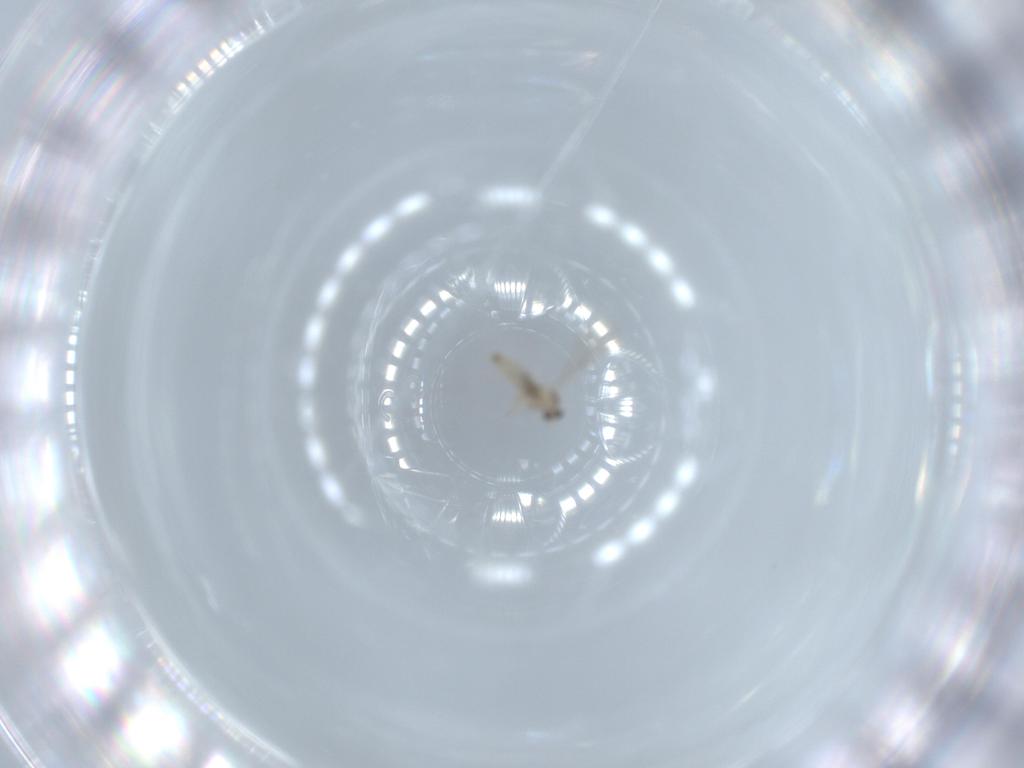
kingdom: Animalia
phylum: Arthropoda
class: Insecta
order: Diptera
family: Cecidomyiidae
